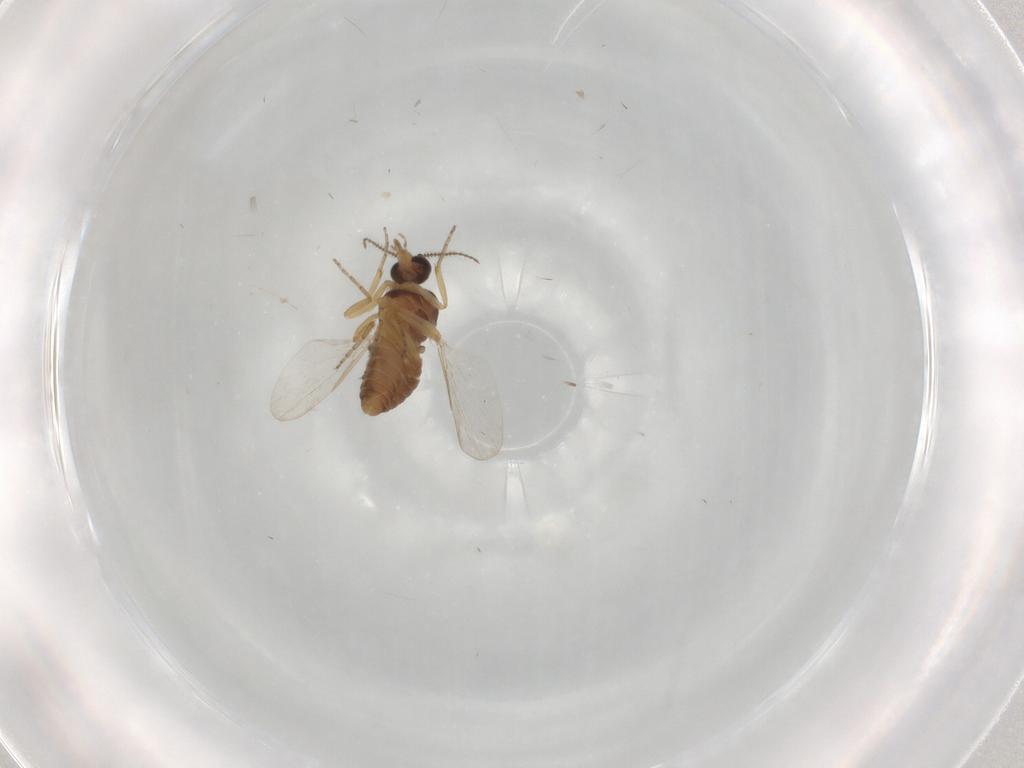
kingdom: Animalia
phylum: Arthropoda
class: Insecta
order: Diptera
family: Ceratopogonidae
